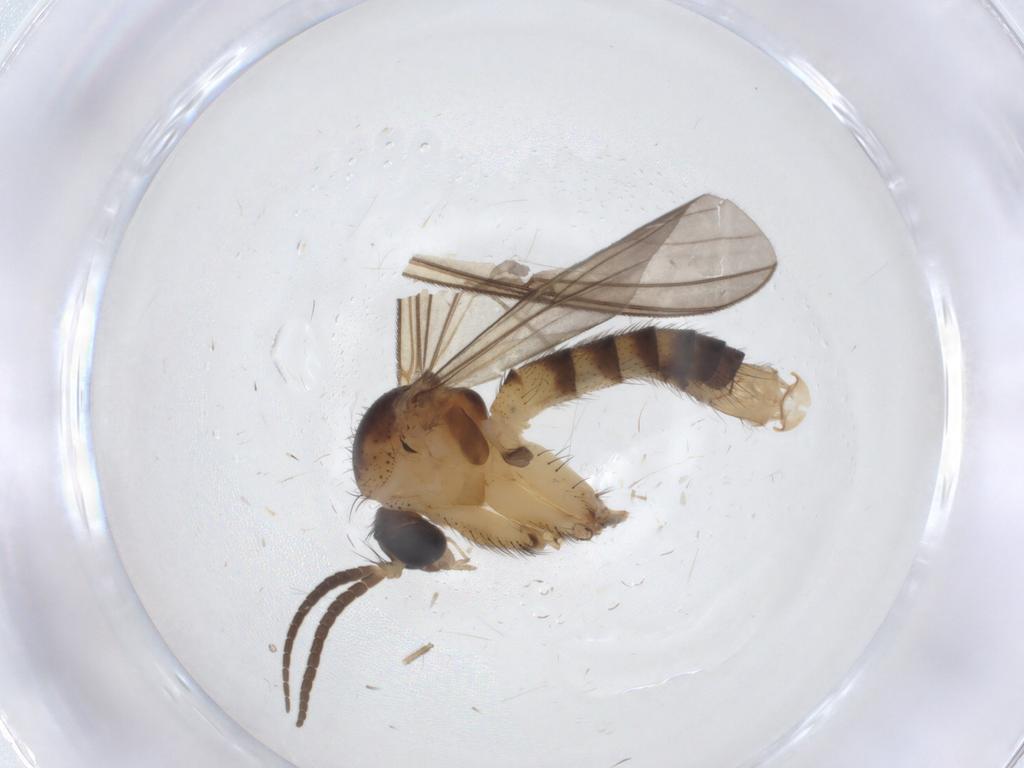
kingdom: Animalia
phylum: Arthropoda
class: Insecta
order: Diptera
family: Mycetophilidae
